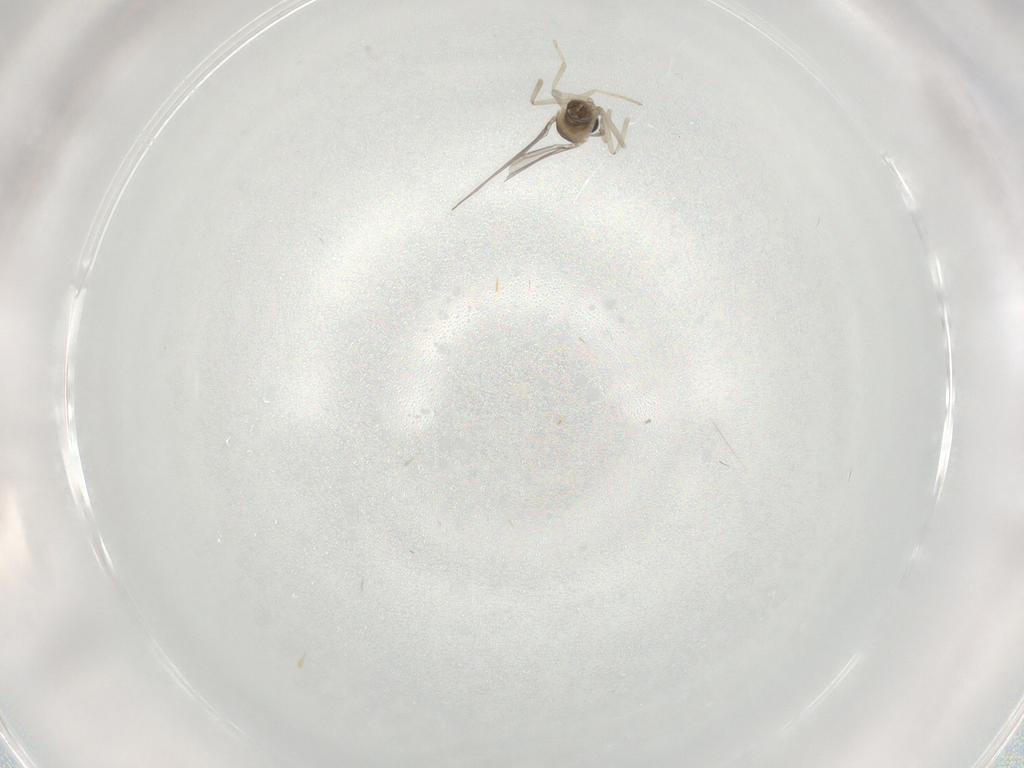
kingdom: Animalia
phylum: Arthropoda
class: Insecta
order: Diptera
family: Cecidomyiidae
